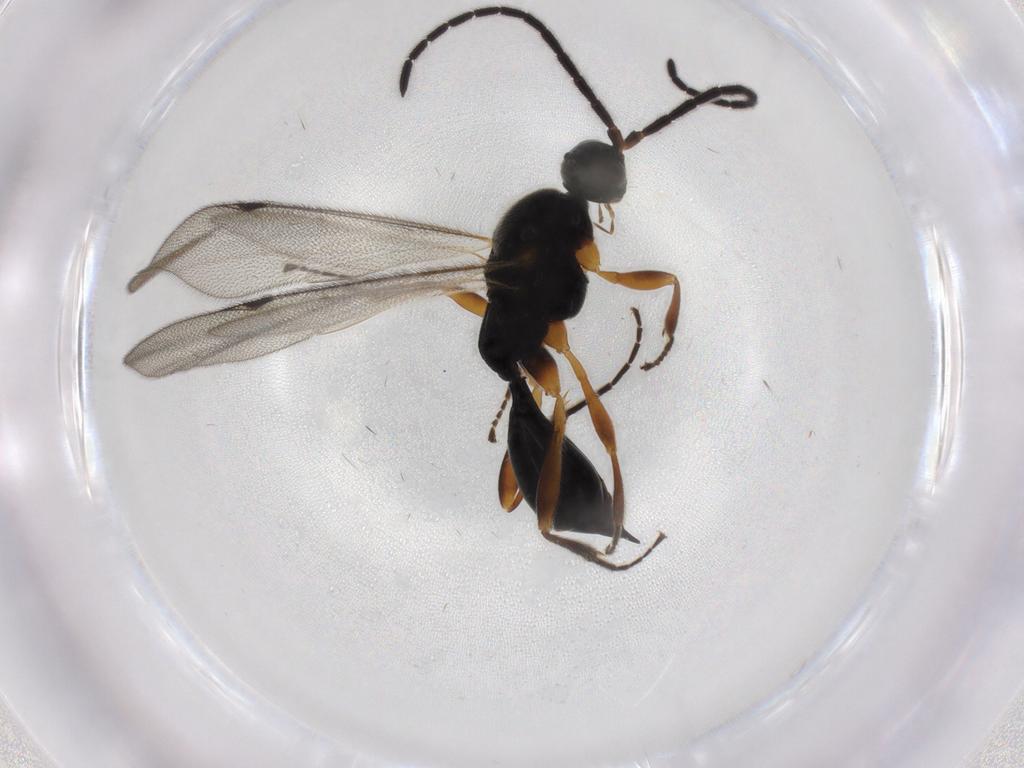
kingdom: Animalia
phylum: Arthropoda
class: Insecta
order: Hymenoptera
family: Proctotrupidae
